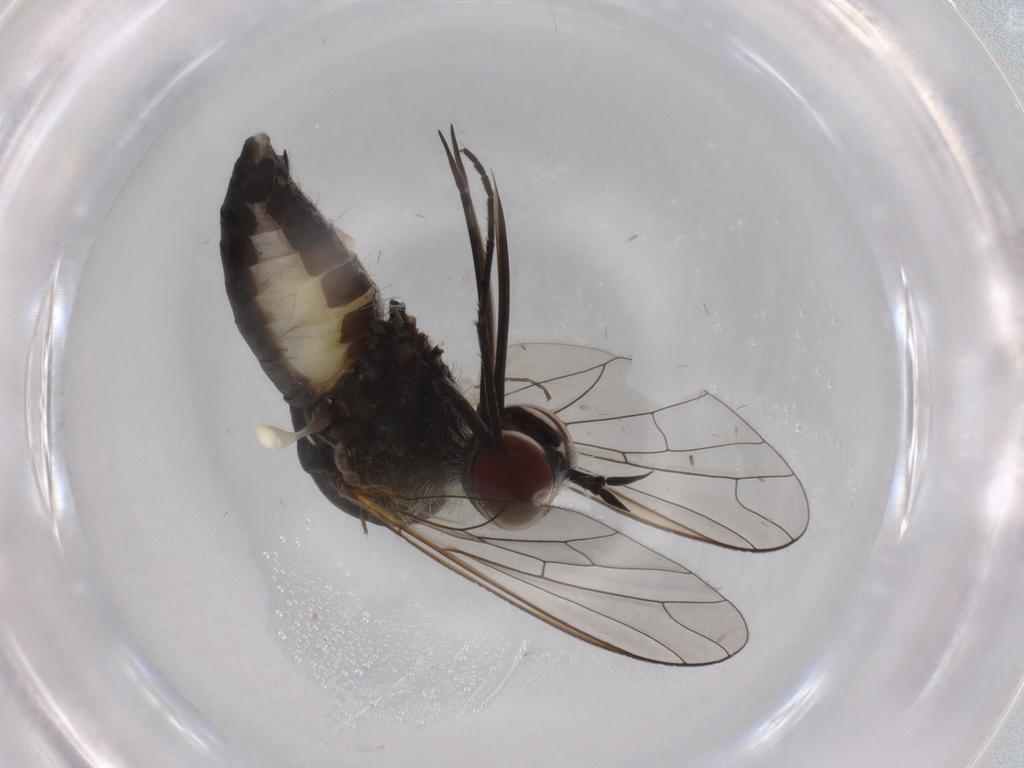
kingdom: Animalia
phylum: Arthropoda
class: Insecta
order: Diptera
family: Bombyliidae
